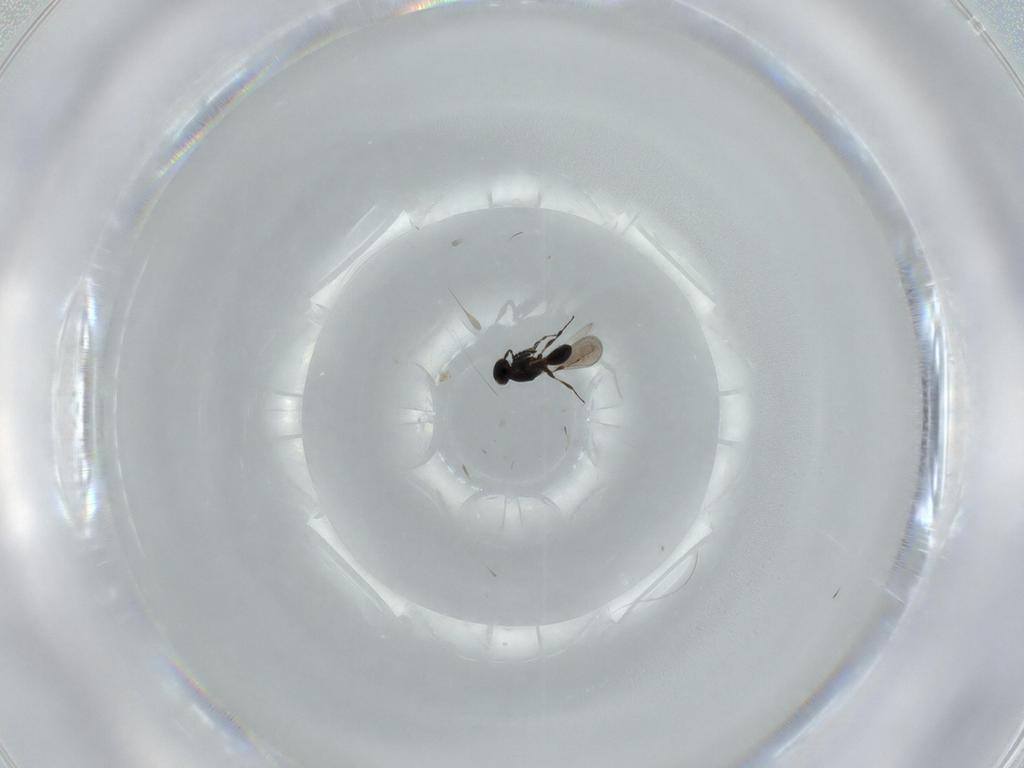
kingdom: Animalia
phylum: Arthropoda
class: Insecta
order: Hymenoptera
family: Platygastridae
